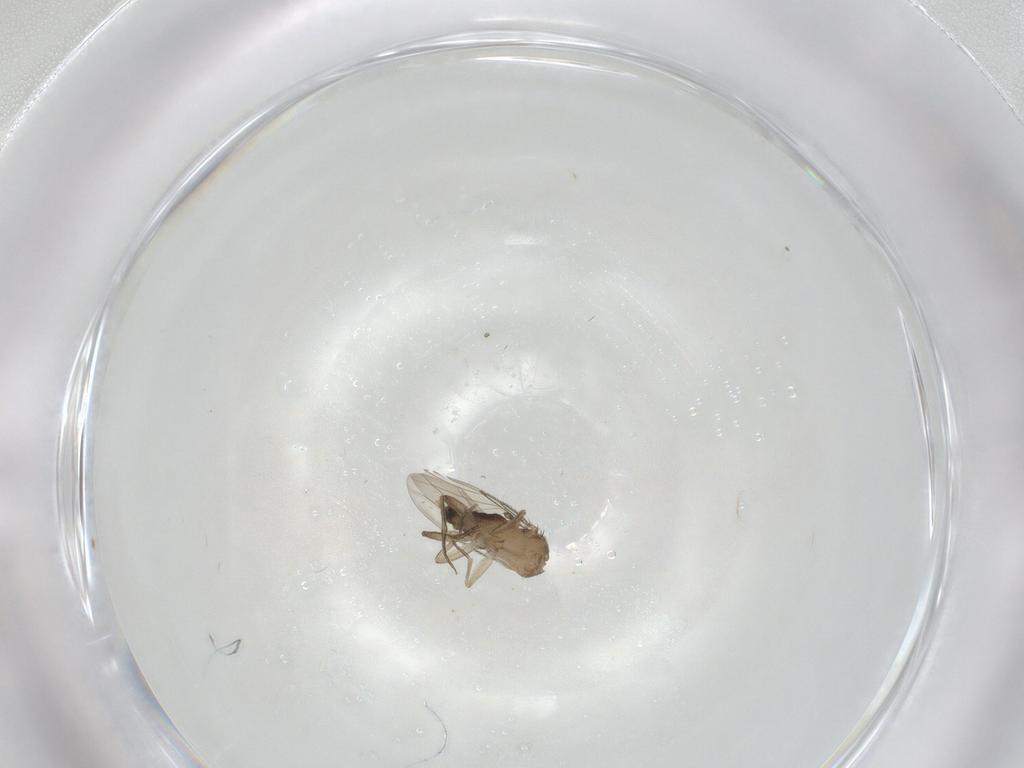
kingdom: Animalia
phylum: Arthropoda
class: Insecta
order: Diptera
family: Phoridae
